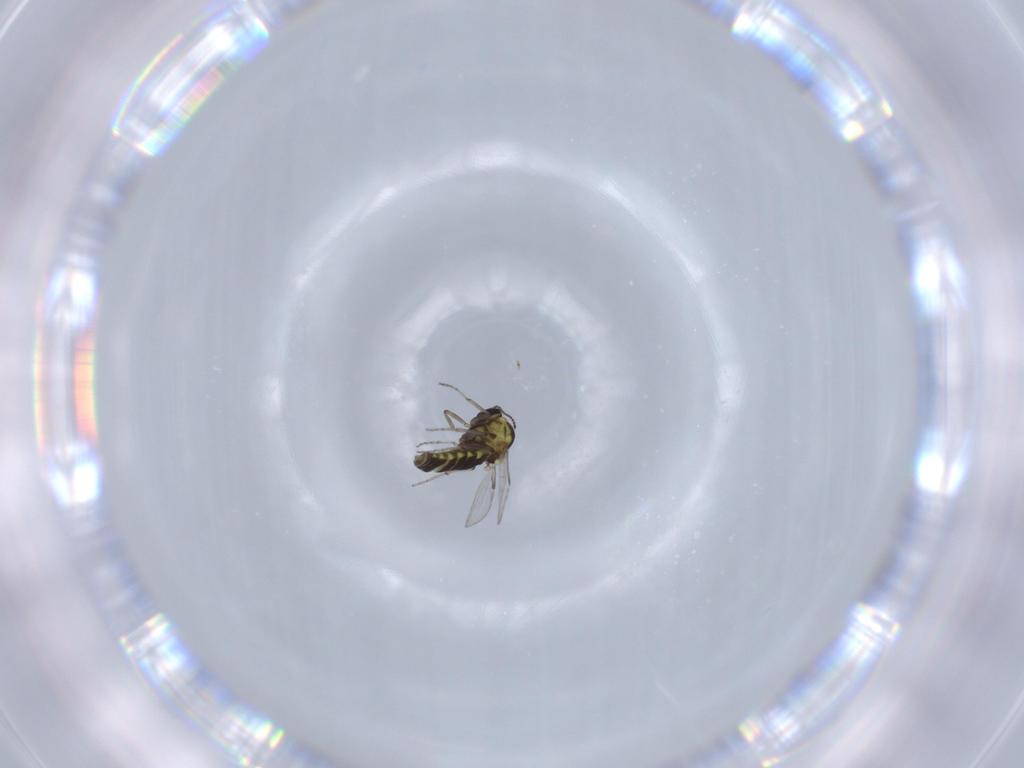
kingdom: Animalia
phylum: Arthropoda
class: Insecta
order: Diptera
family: Ceratopogonidae
